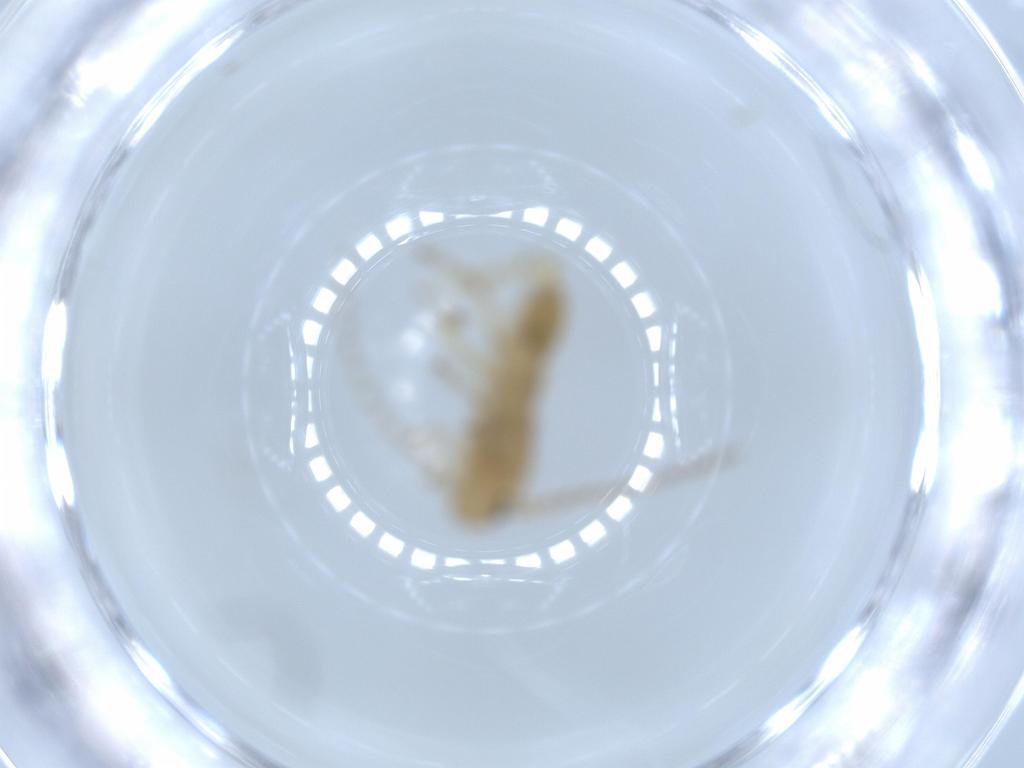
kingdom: Animalia
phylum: Arthropoda
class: Insecta
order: Blattodea
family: Ectobiidae
